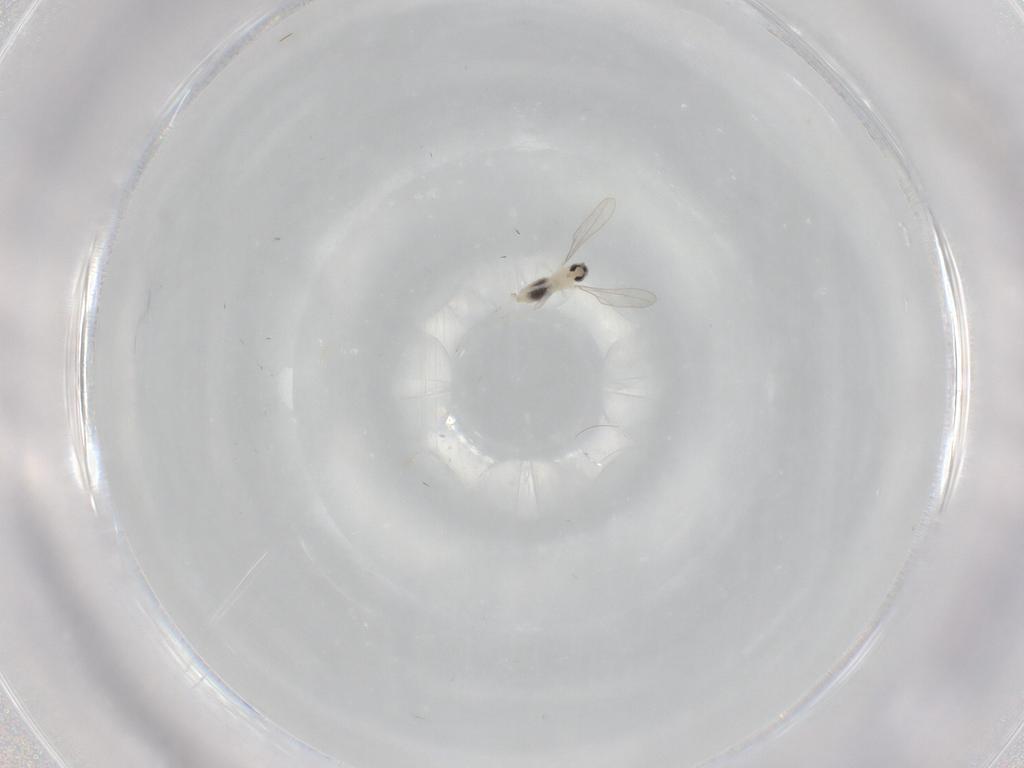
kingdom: Animalia
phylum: Arthropoda
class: Insecta
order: Diptera
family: Cecidomyiidae
